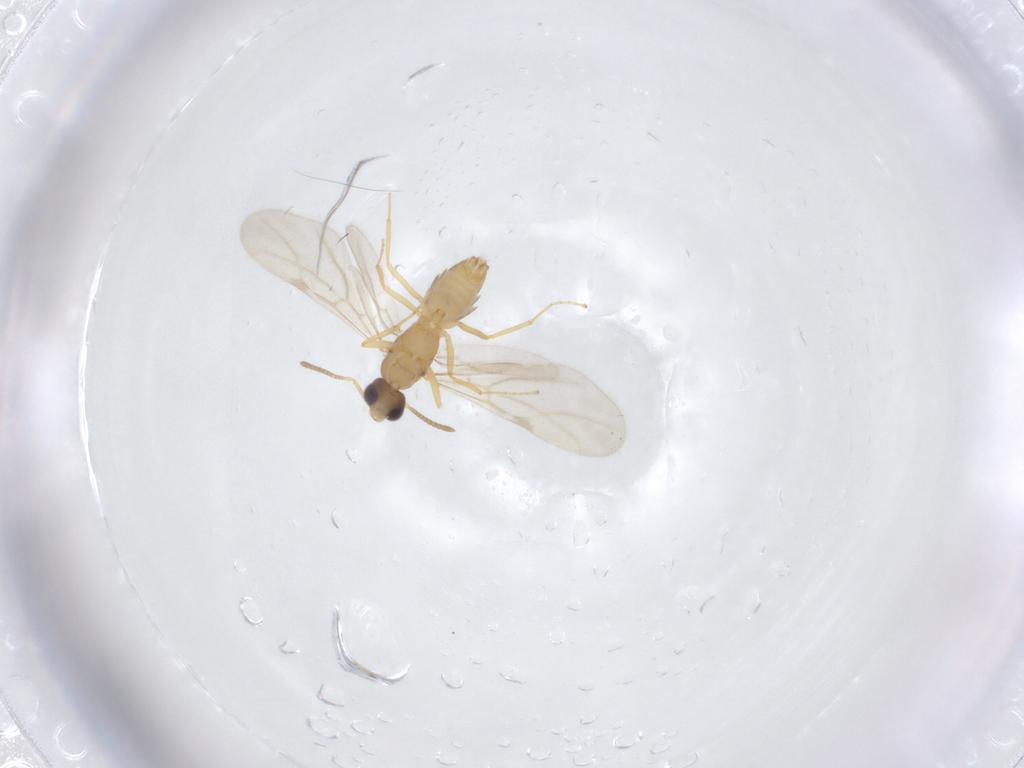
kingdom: Animalia
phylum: Arthropoda
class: Insecta
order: Hymenoptera
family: Formicidae
